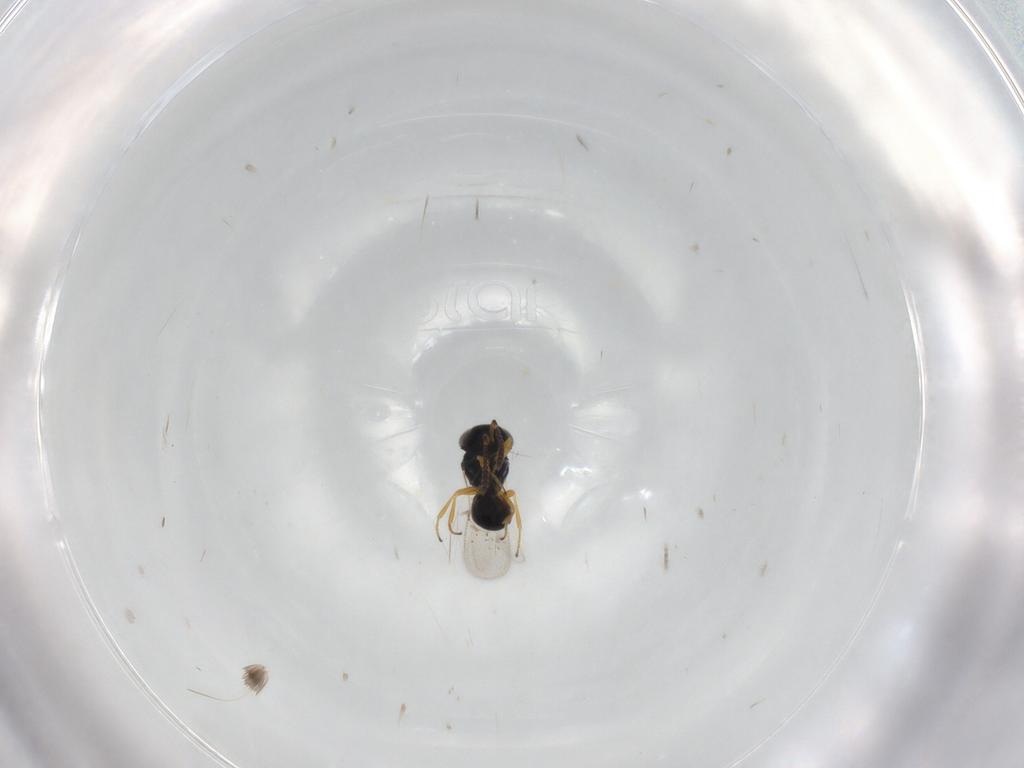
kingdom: Animalia
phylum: Arthropoda
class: Insecta
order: Hymenoptera
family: Scelionidae
